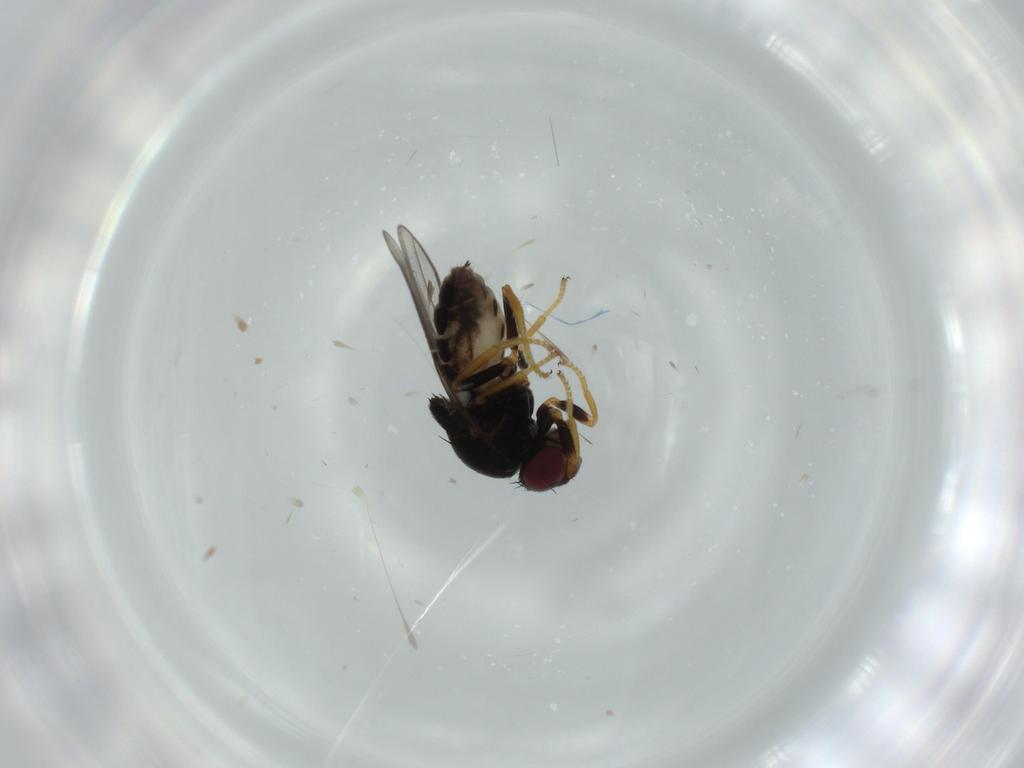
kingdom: Animalia
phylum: Arthropoda
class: Insecta
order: Diptera
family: Chloropidae
